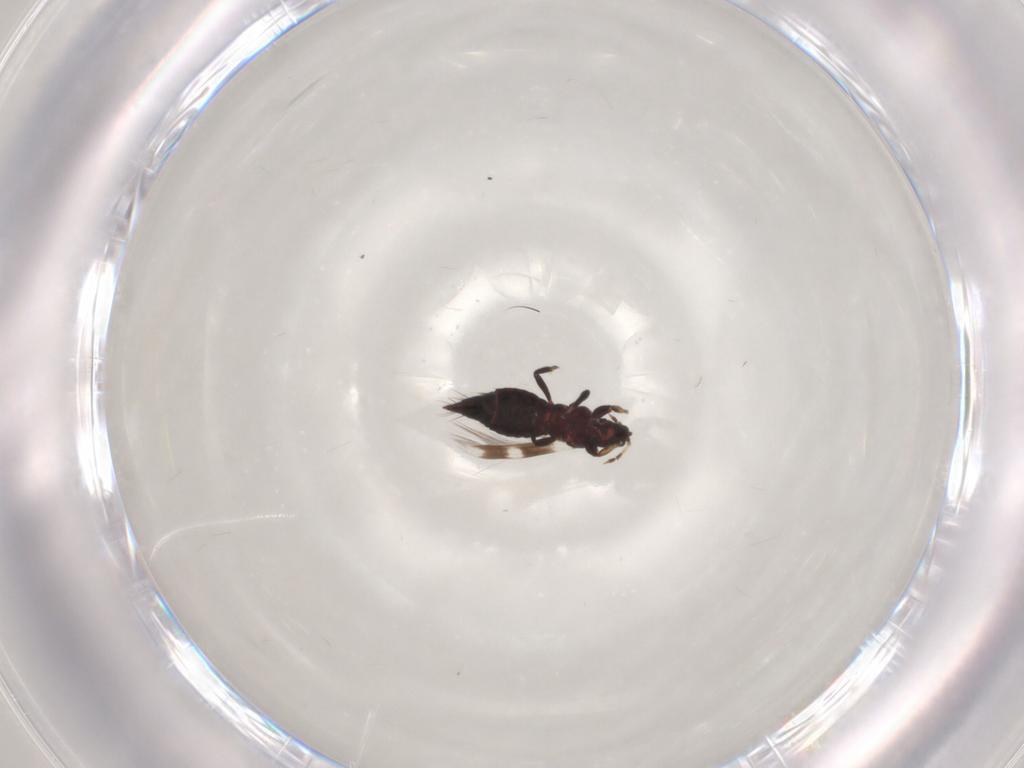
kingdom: Animalia
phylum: Arthropoda
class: Insecta
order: Thysanoptera
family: Aeolothripidae
